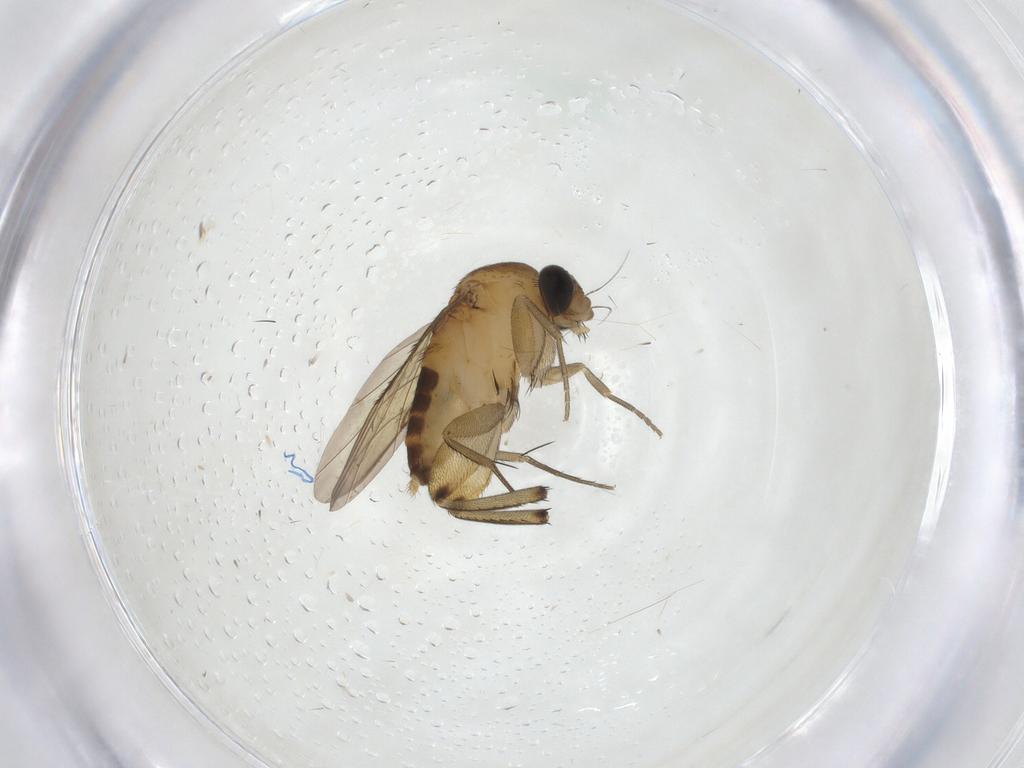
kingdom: Animalia
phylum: Arthropoda
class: Insecta
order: Diptera
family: Phoridae
